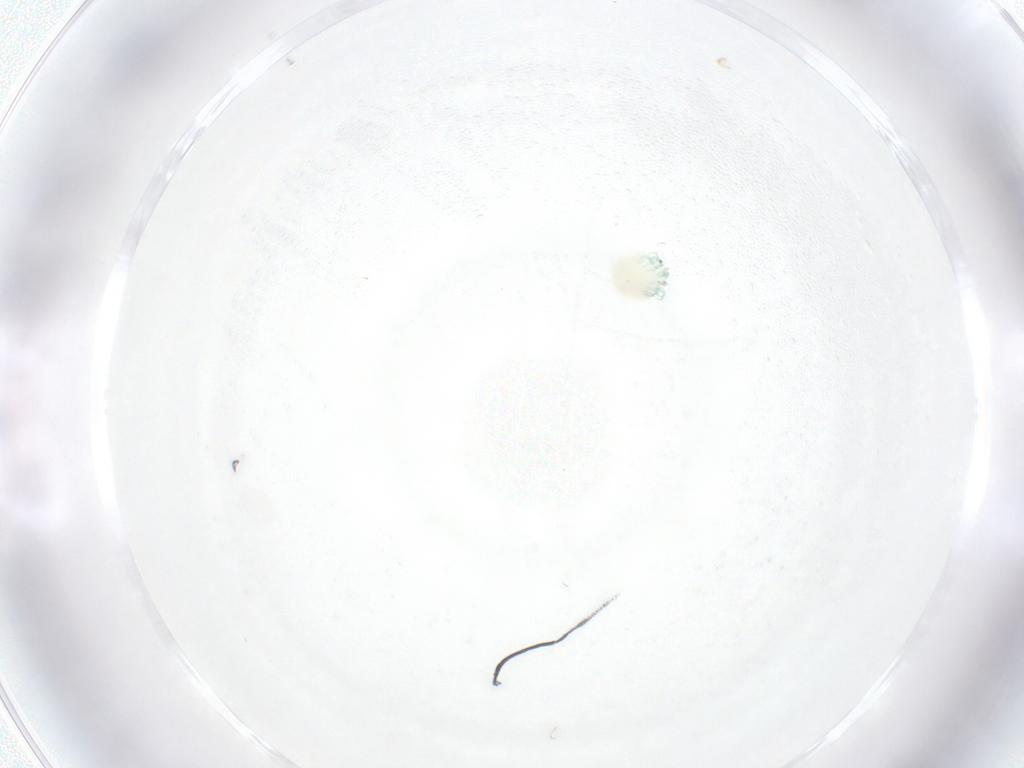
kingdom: Animalia
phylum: Arthropoda
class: Arachnida
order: Trombidiformes
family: Arrenuridae
